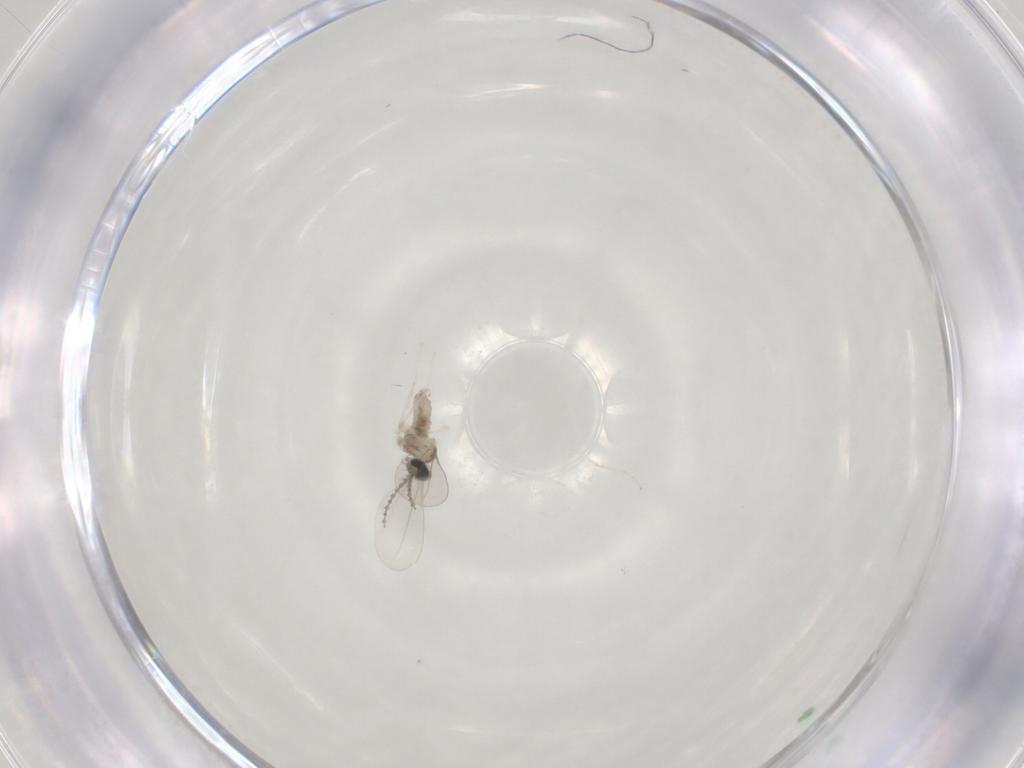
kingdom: Animalia
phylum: Arthropoda
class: Insecta
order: Diptera
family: Cecidomyiidae
